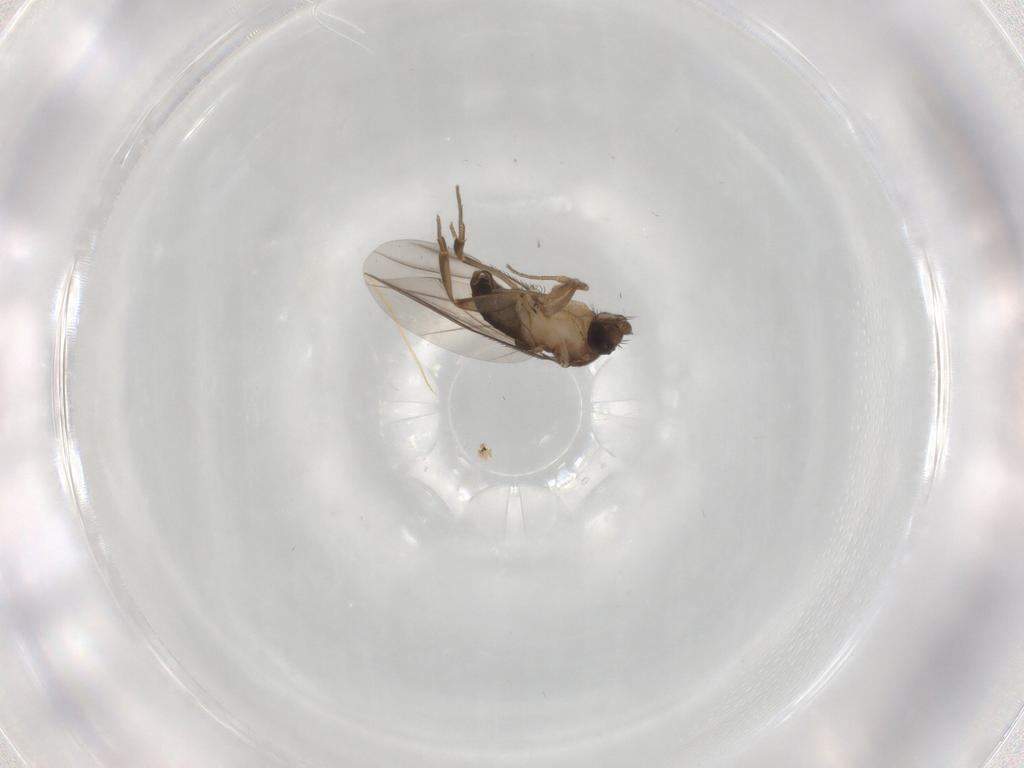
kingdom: Animalia
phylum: Arthropoda
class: Insecta
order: Diptera
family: Phoridae
